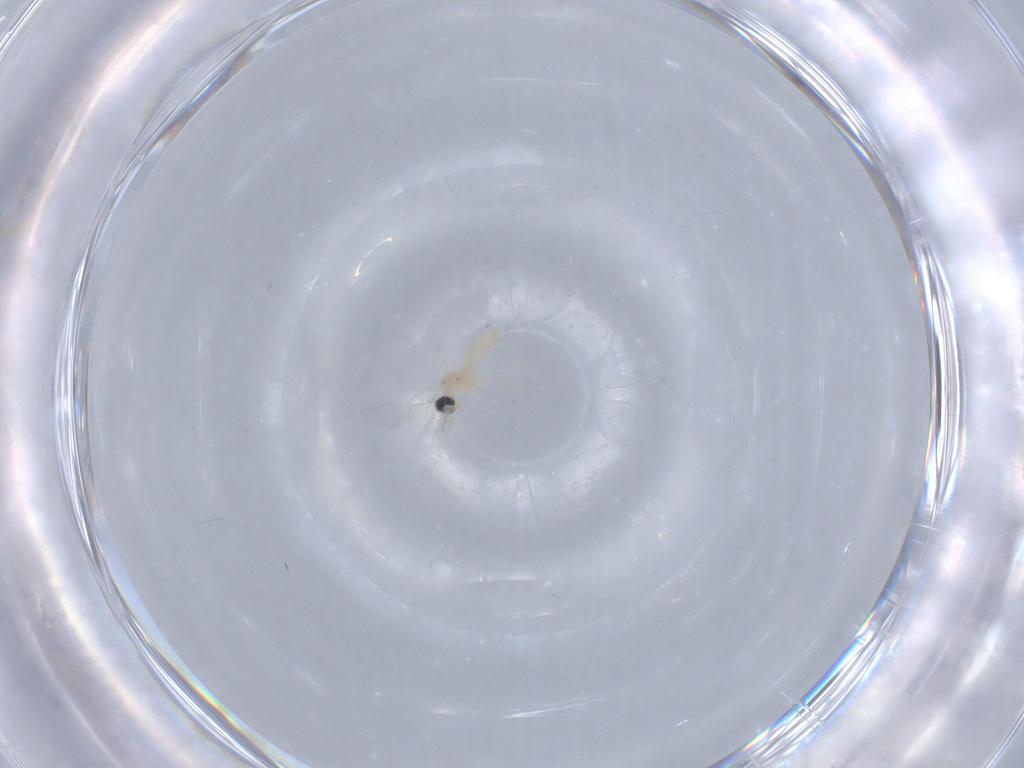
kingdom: Animalia
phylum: Arthropoda
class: Insecta
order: Diptera
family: Cecidomyiidae
